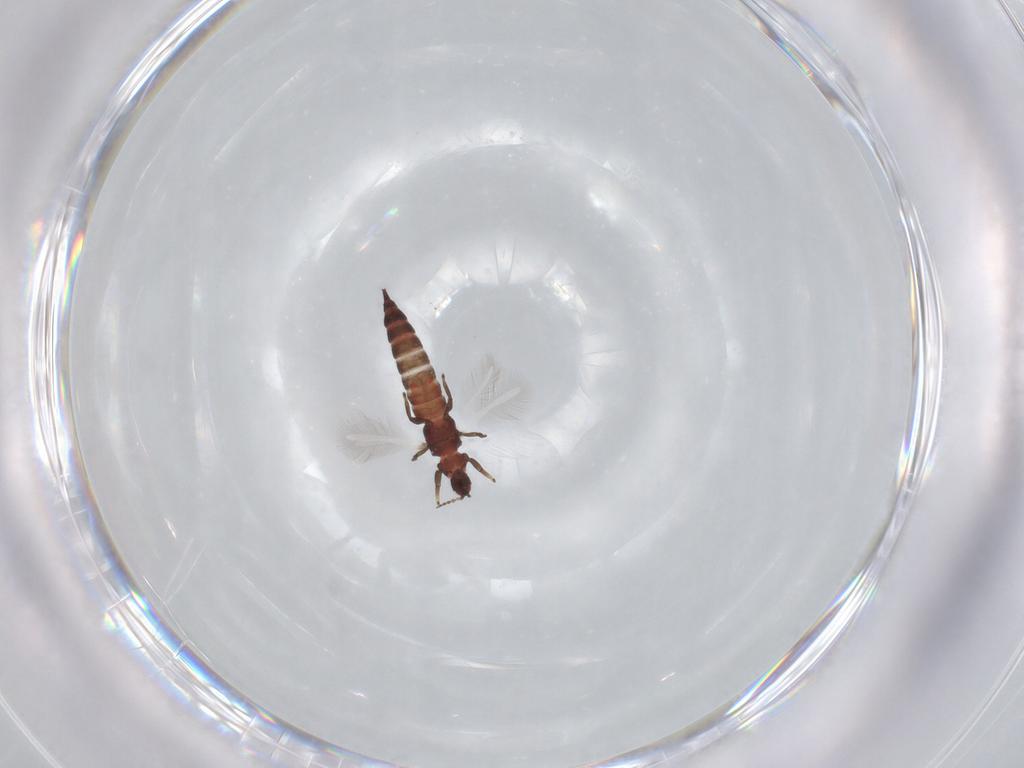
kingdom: Animalia
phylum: Arthropoda
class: Insecta
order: Thysanoptera
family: Phlaeothripidae
